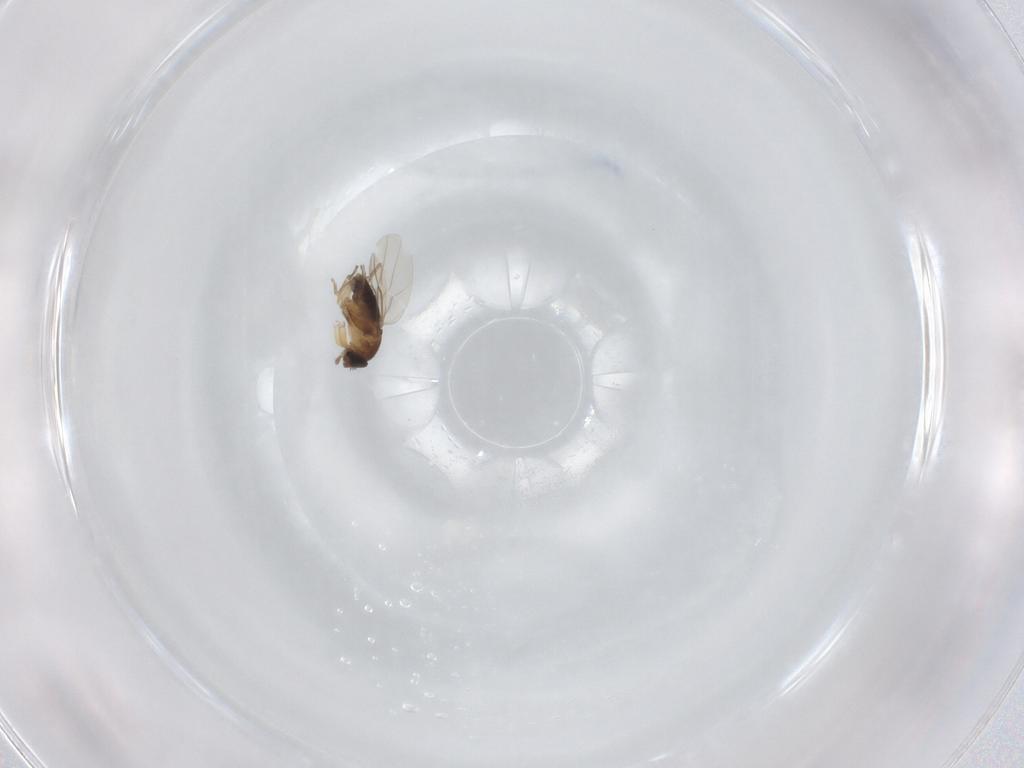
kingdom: Animalia
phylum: Arthropoda
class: Insecta
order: Diptera
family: Phoridae
